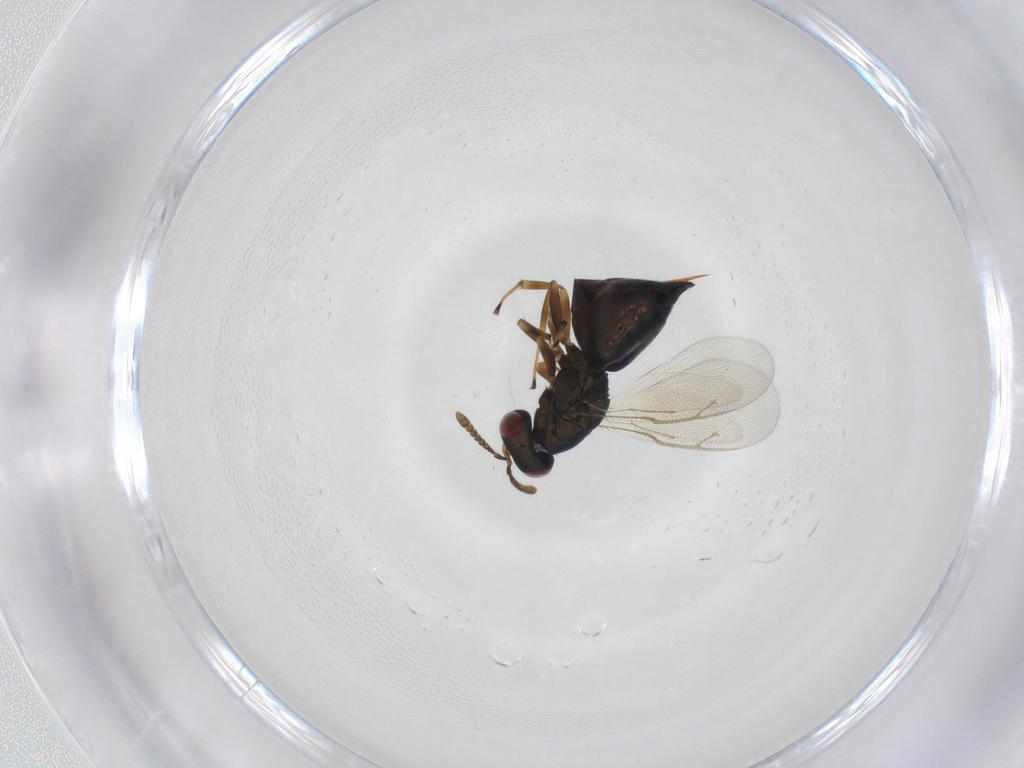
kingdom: Animalia
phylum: Arthropoda
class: Insecta
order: Hymenoptera
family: Pteromalidae
